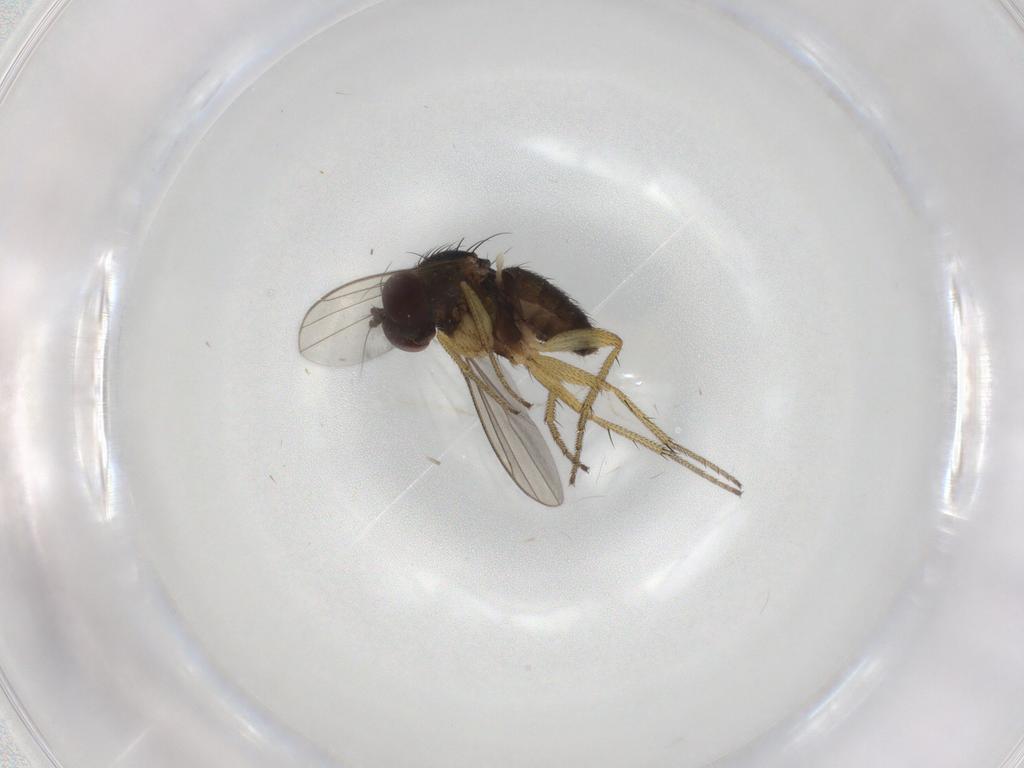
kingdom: Animalia
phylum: Arthropoda
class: Insecta
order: Diptera
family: Dolichopodidae
